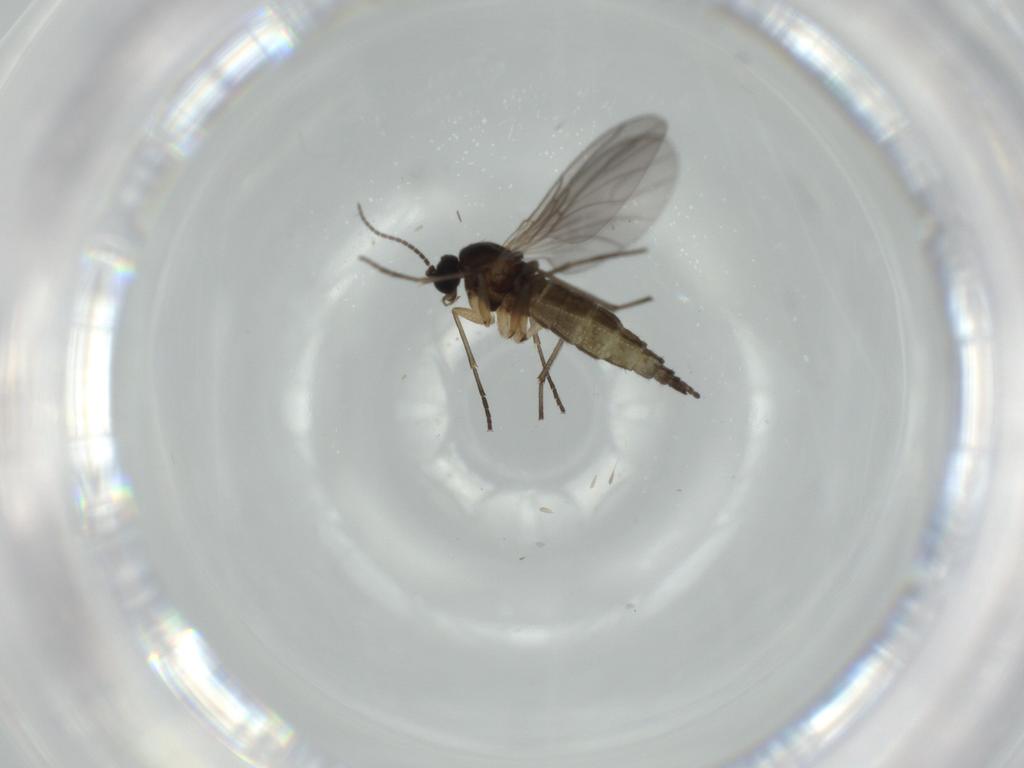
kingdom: Animalia
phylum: Arthropoda
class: Insecta
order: Diptera
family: Sciaridae
